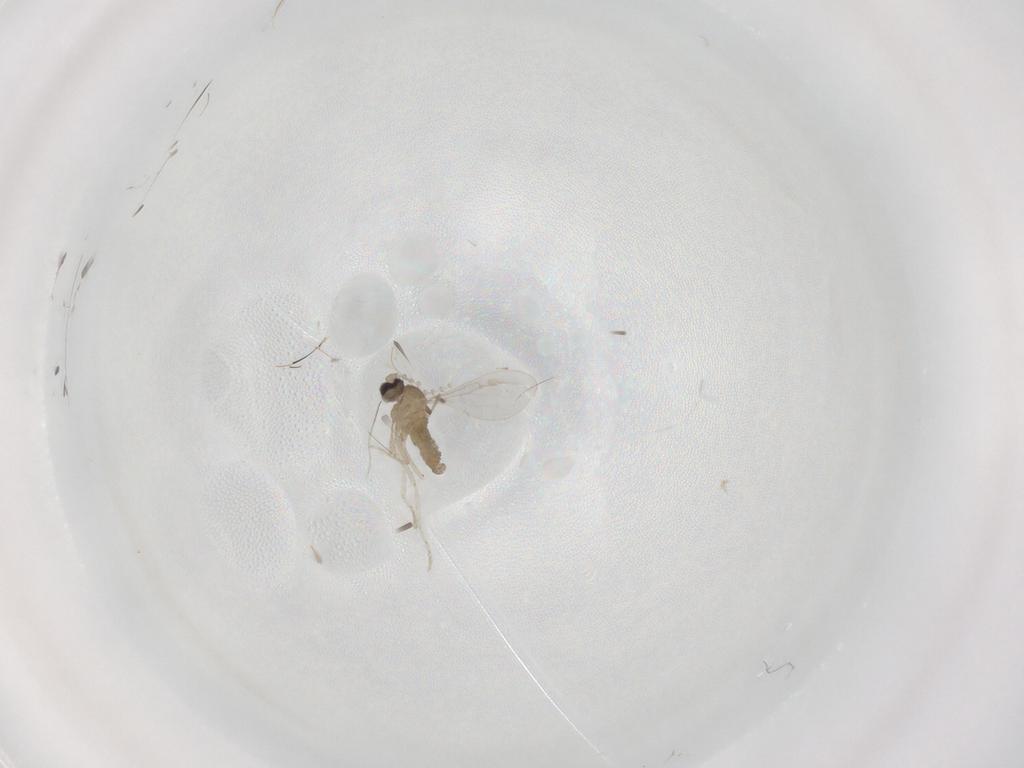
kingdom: Animalia
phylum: Arthropoda
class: Insecta
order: Diptera
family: Cecidomyiidae
